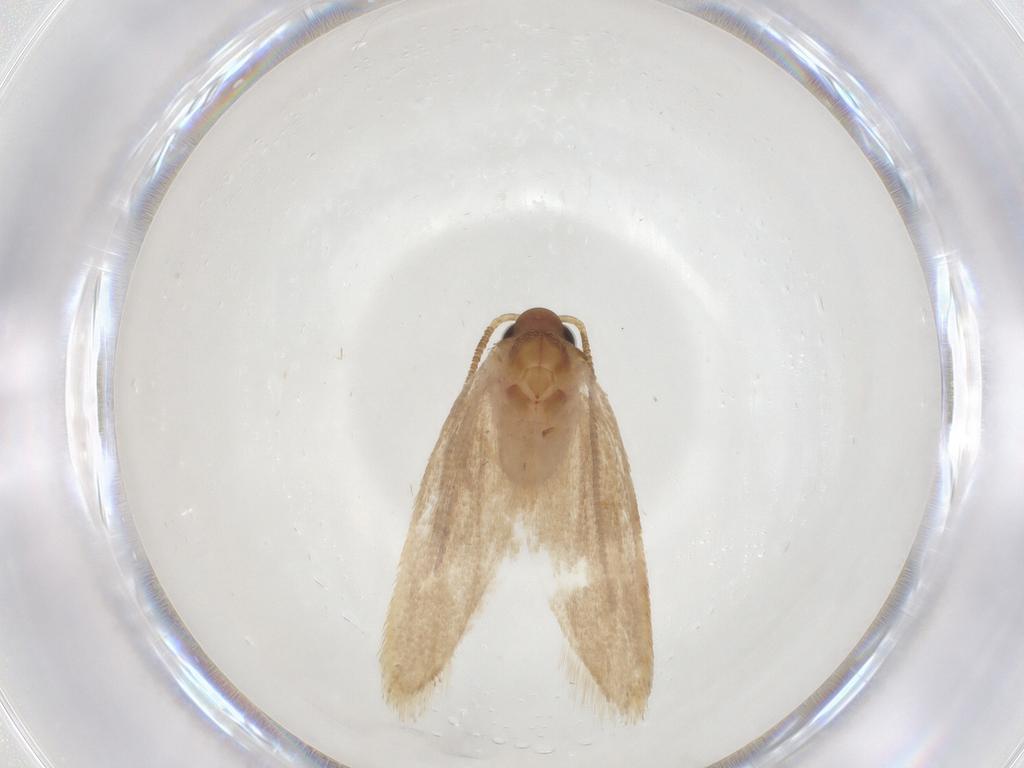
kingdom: Animalia
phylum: Arthropoda
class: Insecta
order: Lepidoptera
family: Autostichidae
